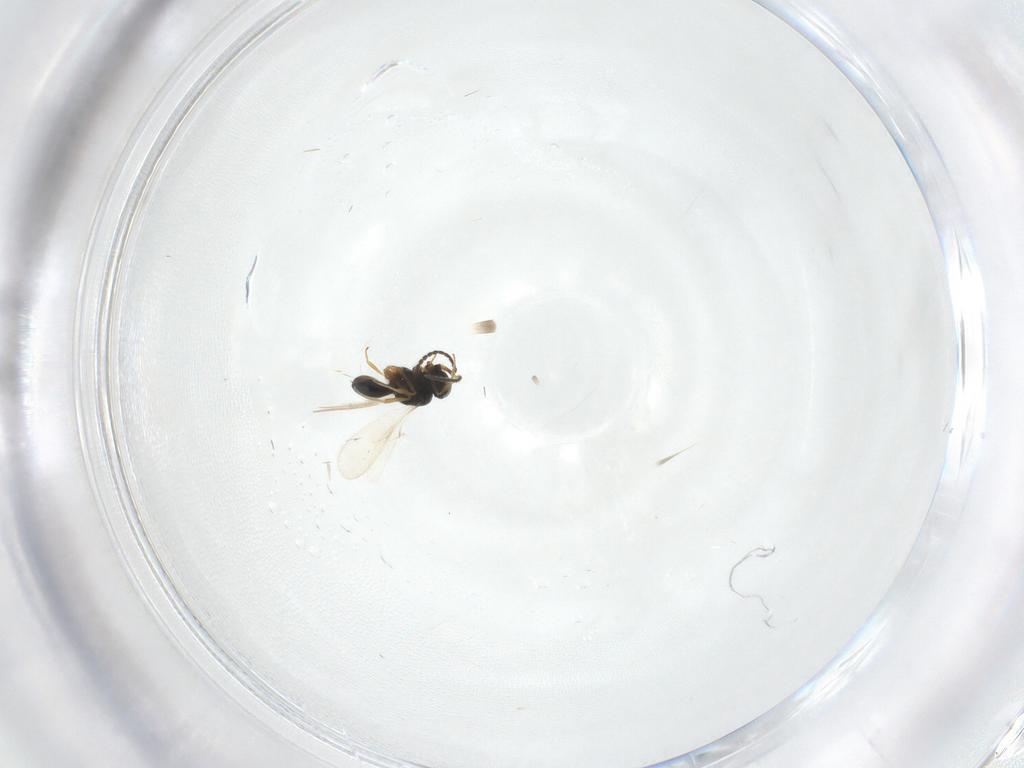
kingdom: Animalia
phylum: Arthropoda
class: Insecta
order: Hymenoptera
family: Scelionidae
